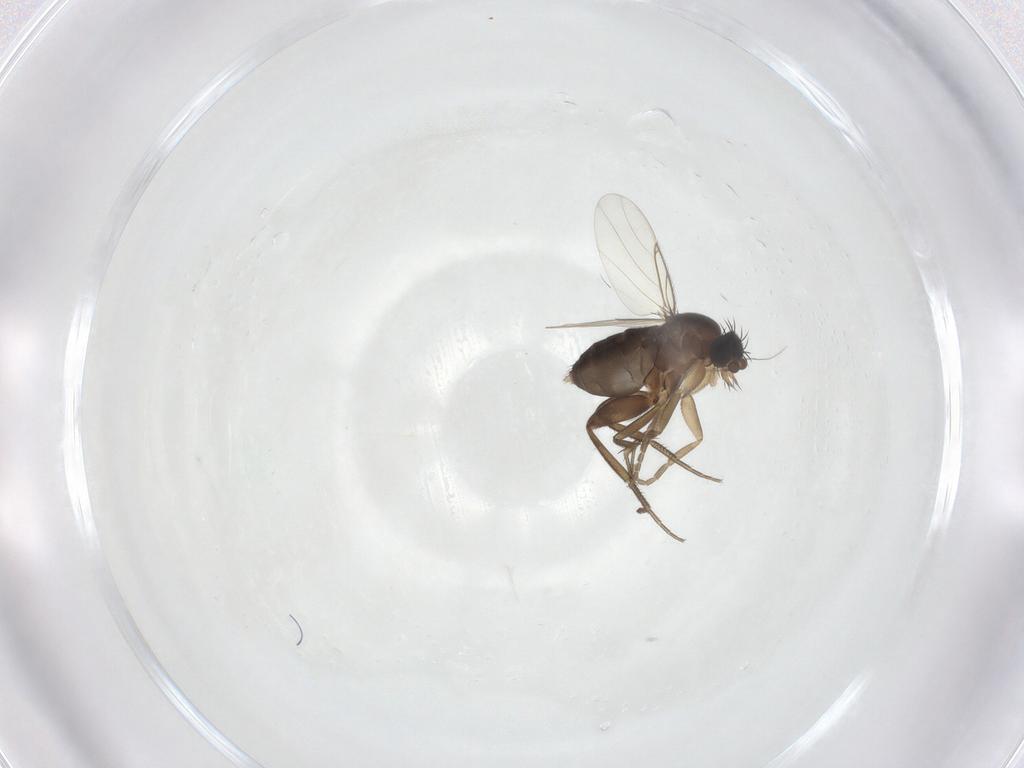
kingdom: Animalia
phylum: Arthropoda
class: Insecta
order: Diptera
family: Phoridae
